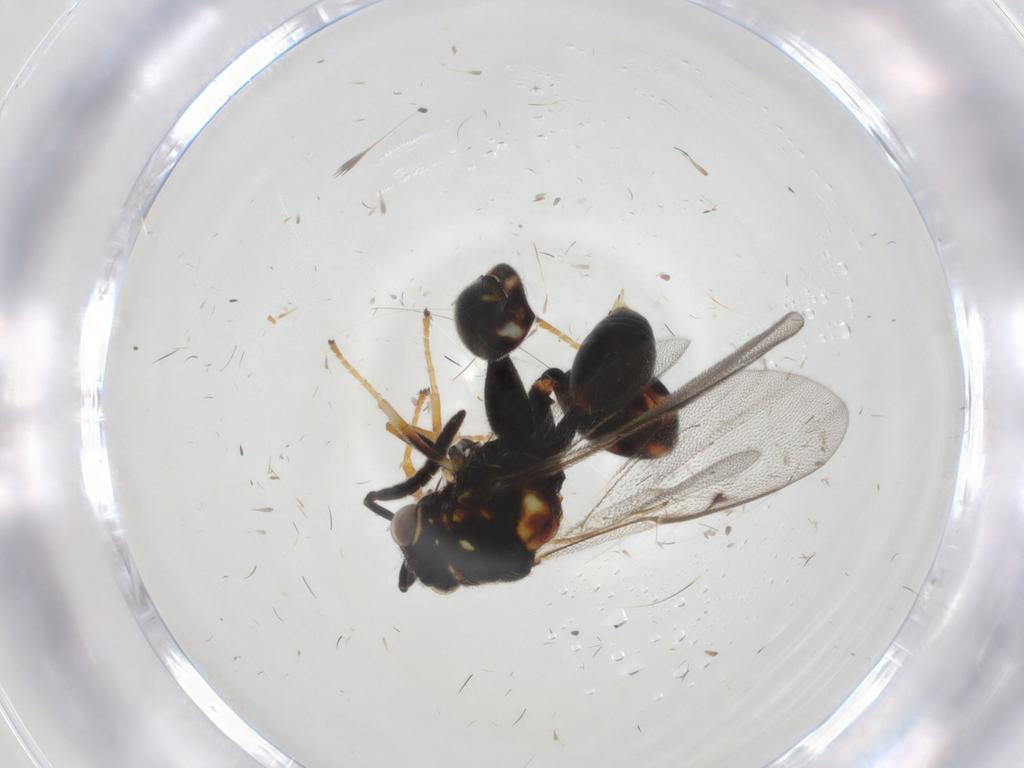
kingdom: Animalia
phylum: Arthropoda
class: Insecta
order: Hymenoptera
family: Chalcididae
